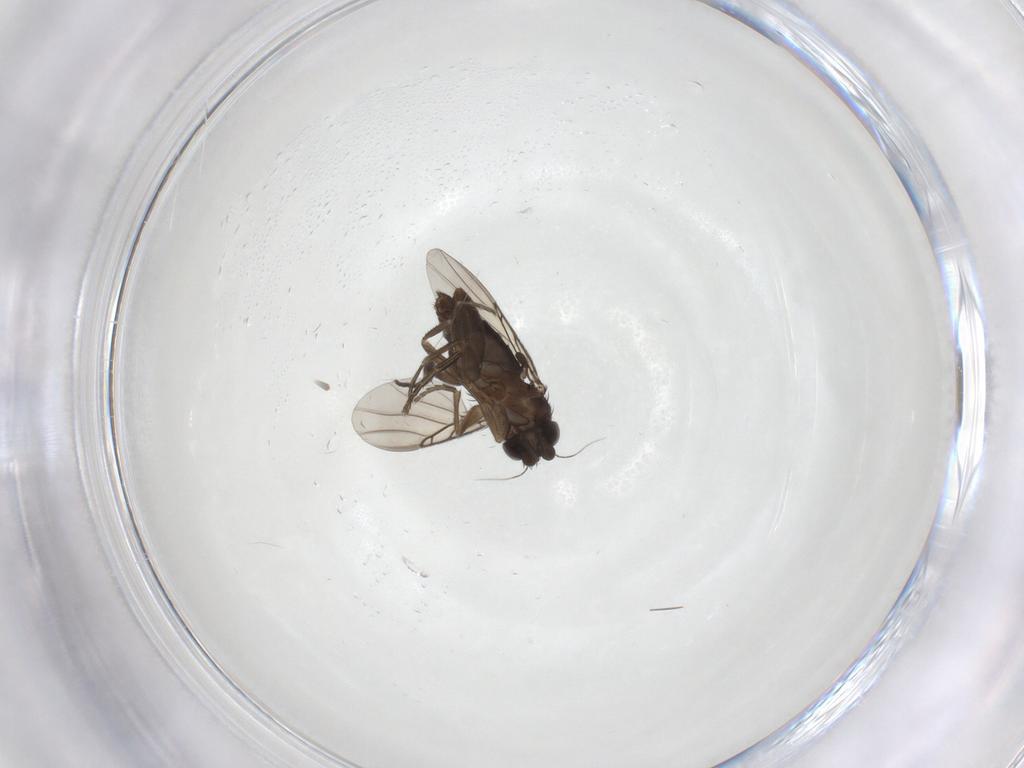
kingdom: Animalia
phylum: Arthropoda
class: Insecta
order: Diptera
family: Phoridae
